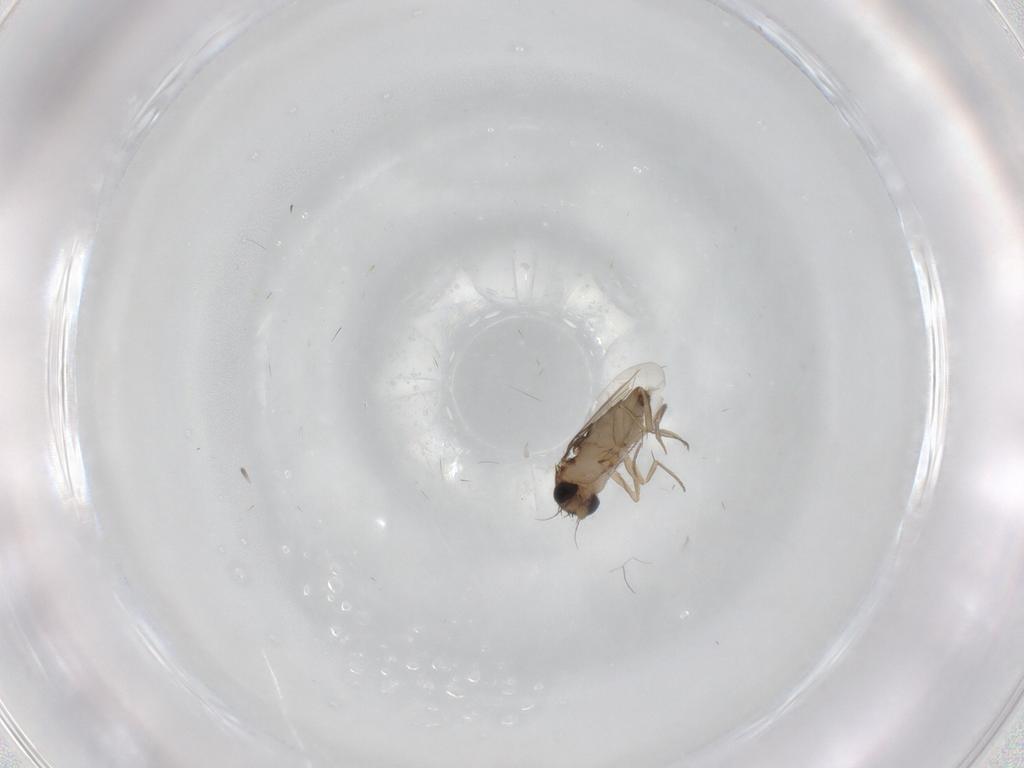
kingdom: Animalia
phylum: Arthropoda
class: Insecta
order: Diptera
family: Phoridae
